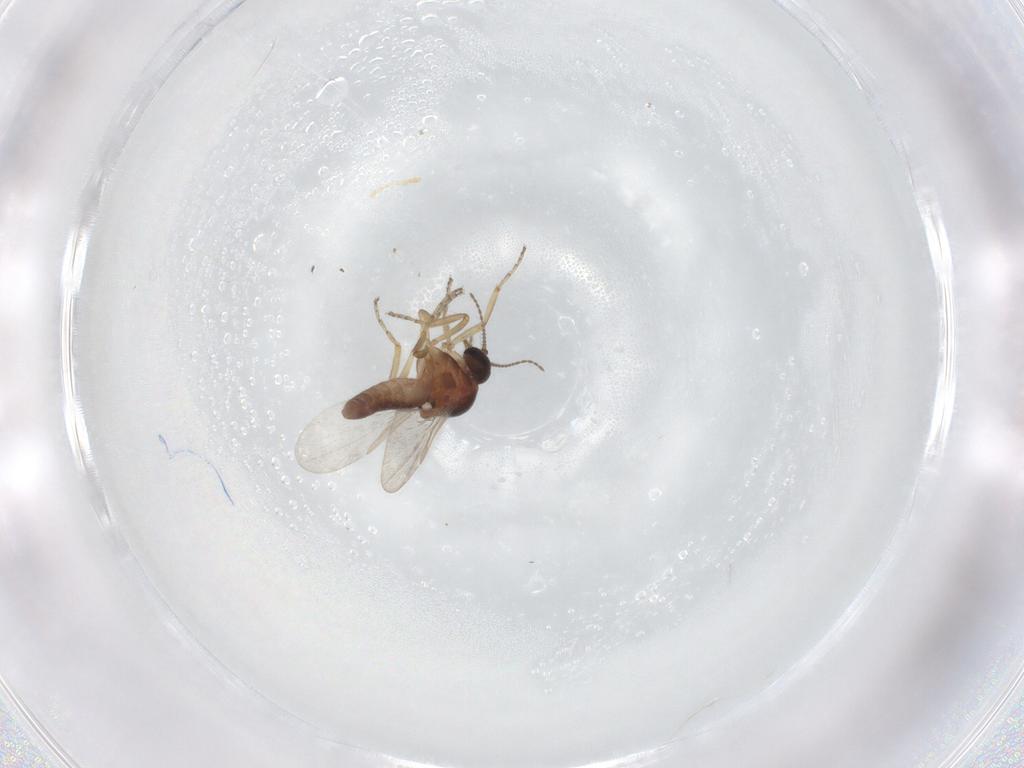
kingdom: Animalia
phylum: Arthropoda
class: Insecta
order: Diptera
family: Ceratopogonidae
